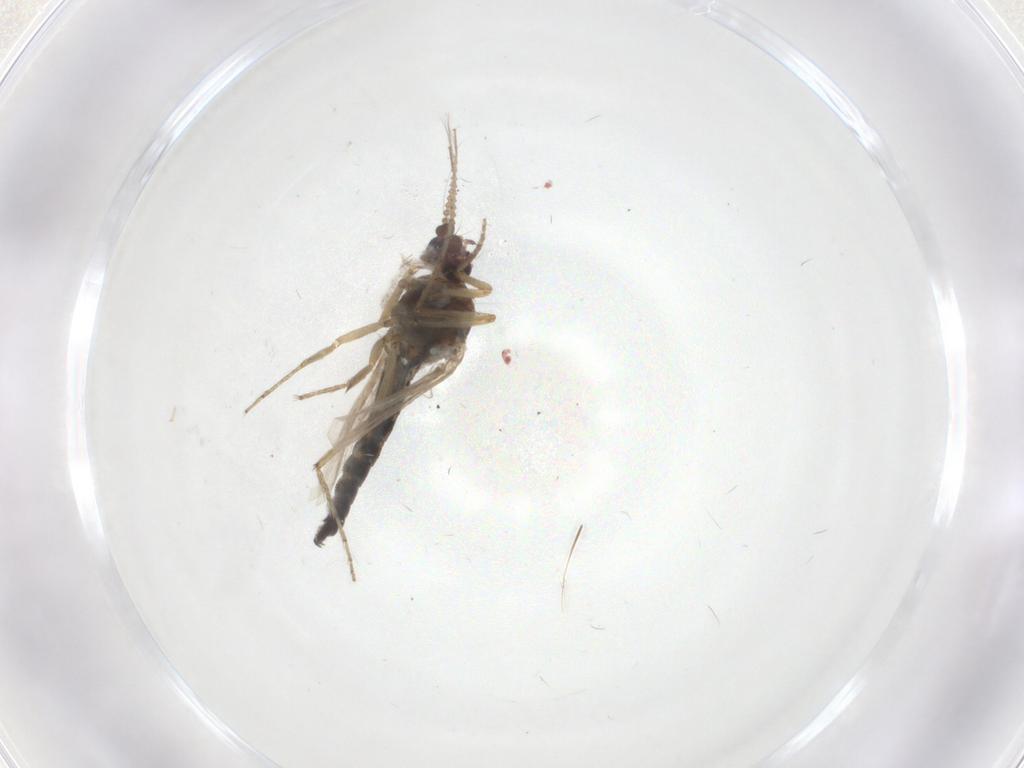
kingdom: Animalia
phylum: Arthropoda
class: Insecta
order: Diptera
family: Ceratopogonidae
